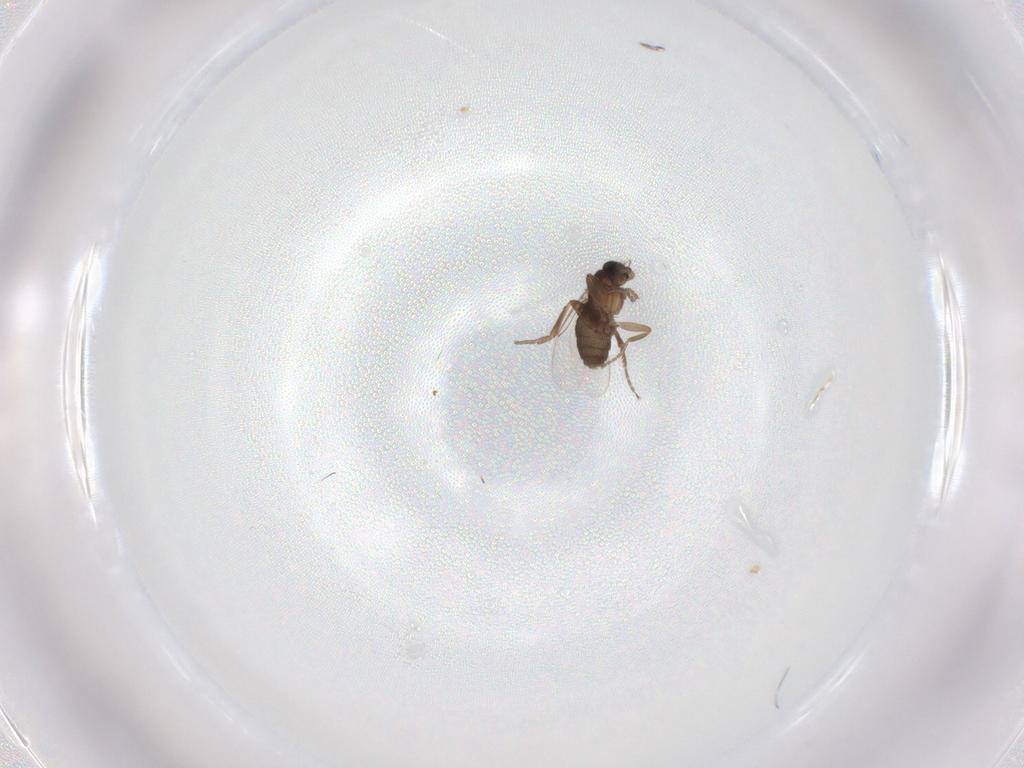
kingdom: Animalia
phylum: Arthropoda
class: Insecta
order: Diptera
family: Phoridae
